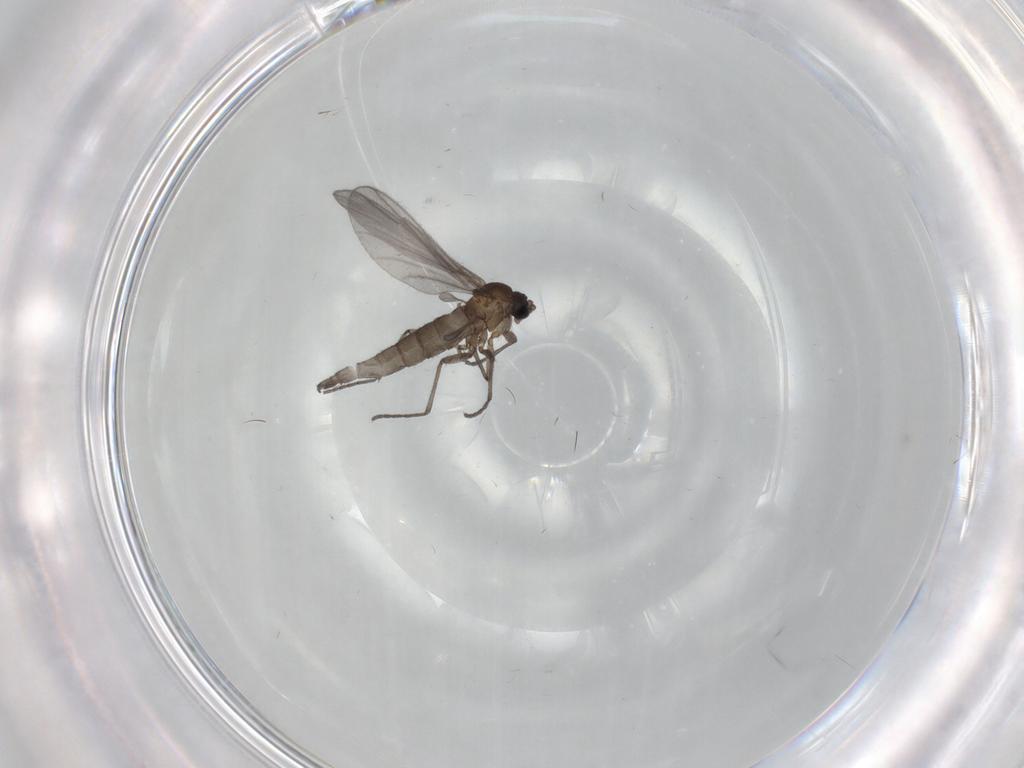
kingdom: Animalia
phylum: Arthropoda
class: Insecta
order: Diptera
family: Sciaridae
